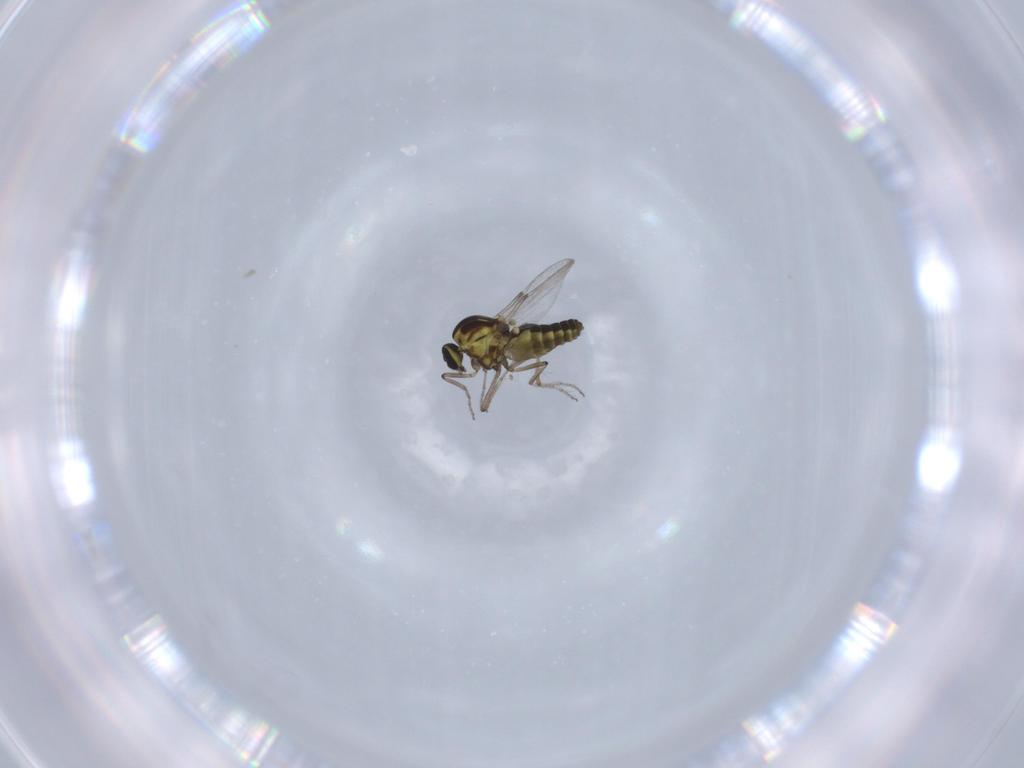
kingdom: Animalia
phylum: Arthropoda
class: Insecta
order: Diptera
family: Ceratopogonidae
